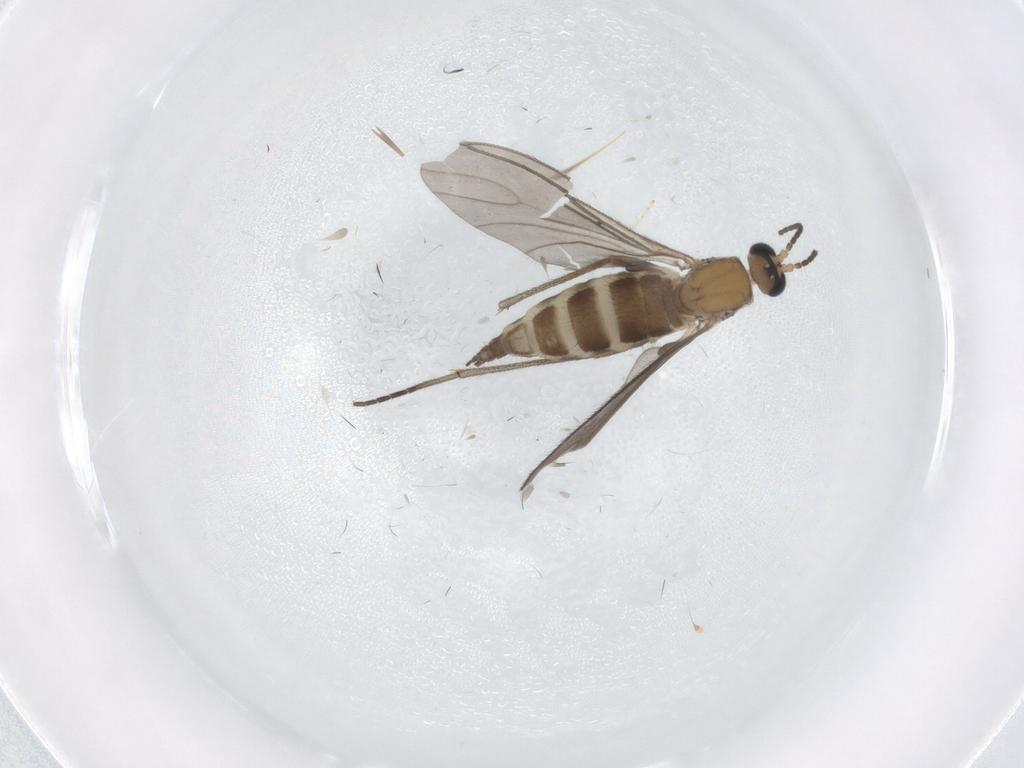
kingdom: Animalia
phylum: Arthropoda
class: Insecta
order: Diptera
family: Sciaridae
